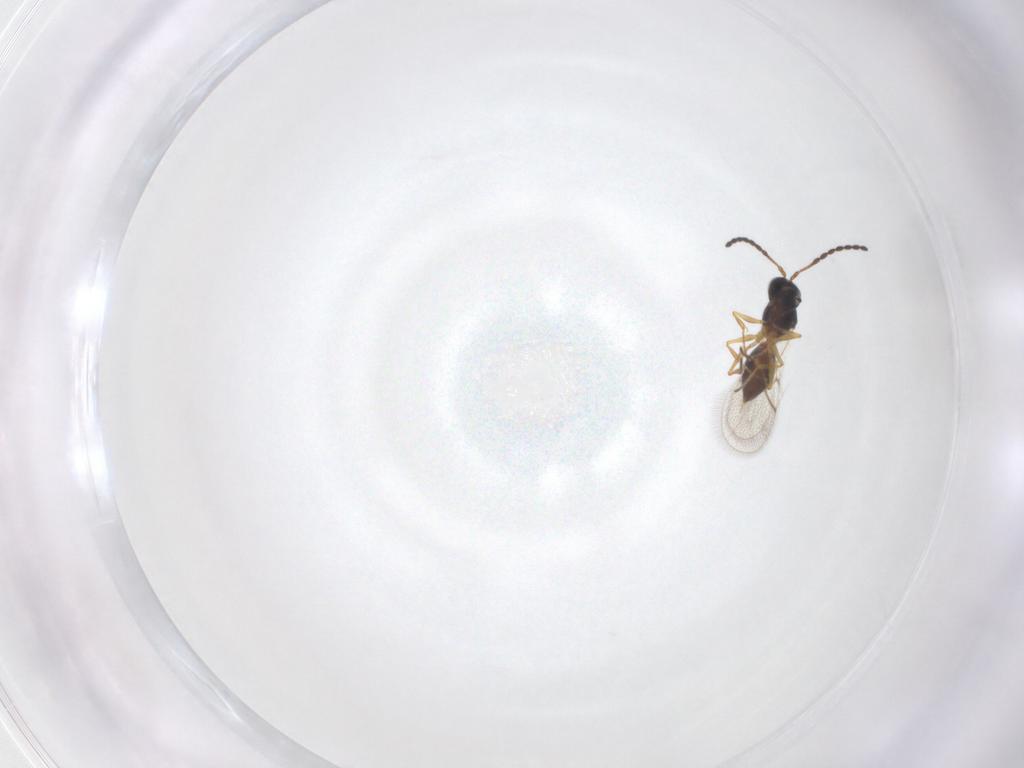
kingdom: Animalia
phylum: Arthropoda
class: Insecta
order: Hymenoptera
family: Figitidae
